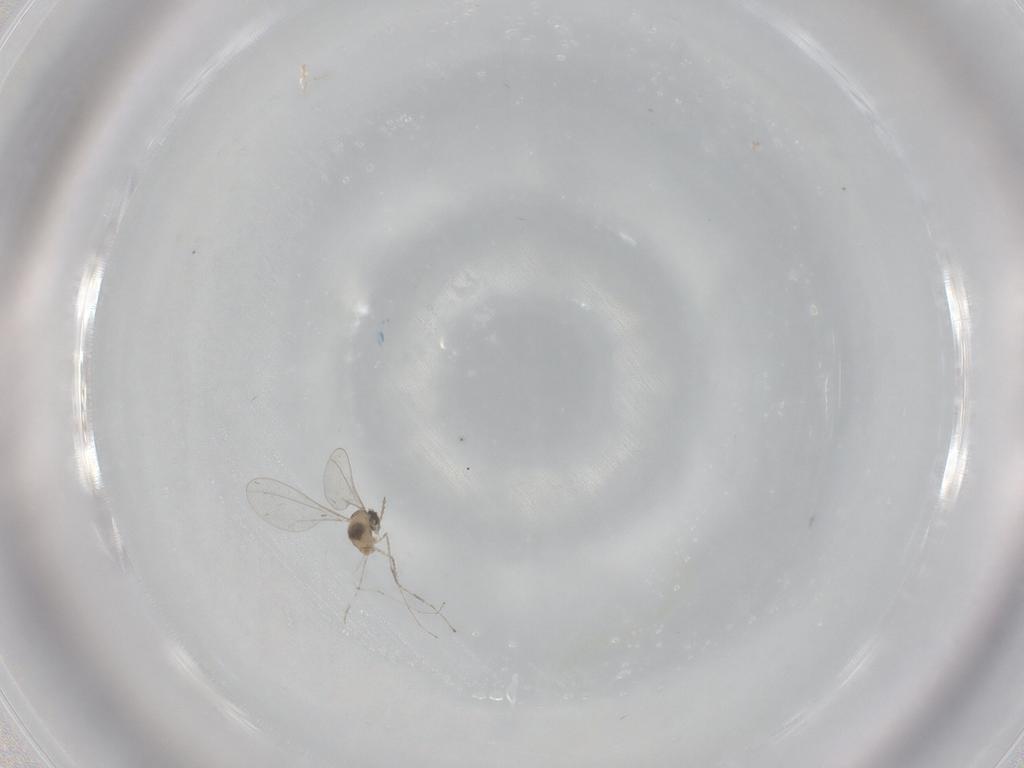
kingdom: Animalia
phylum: Arthropoda
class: Insecta
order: Diptera
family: Cecidomyiidae
